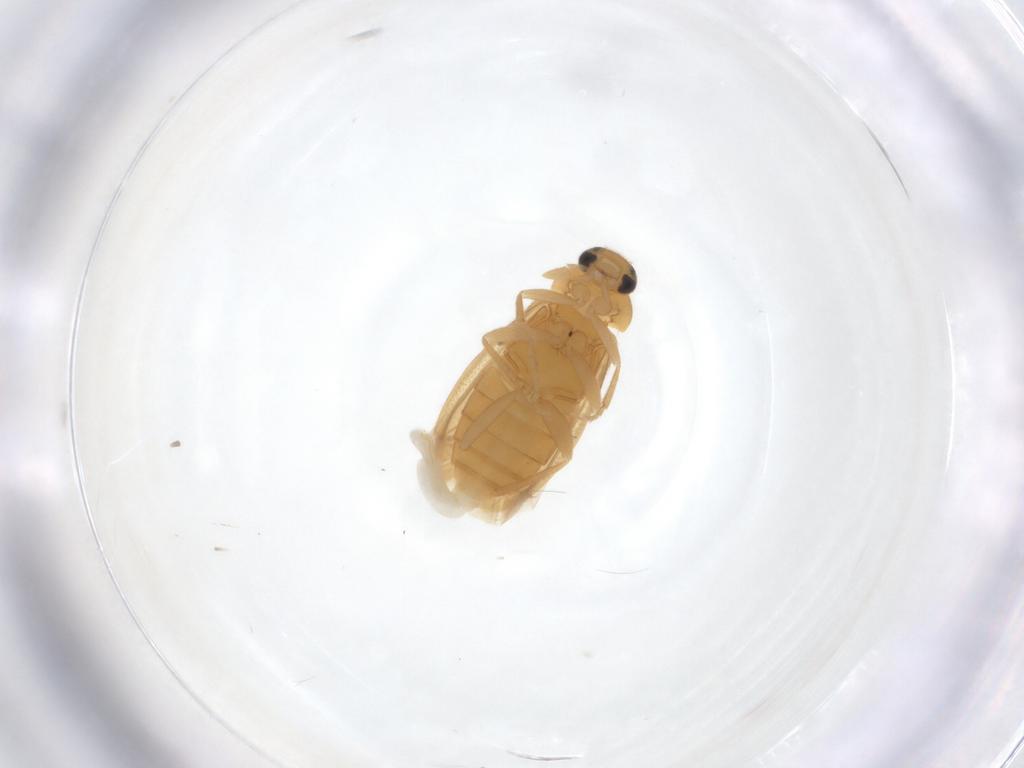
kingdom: Animalia
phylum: Arthropoda
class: Insecta
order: Coleoptera
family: Scraptiidae
